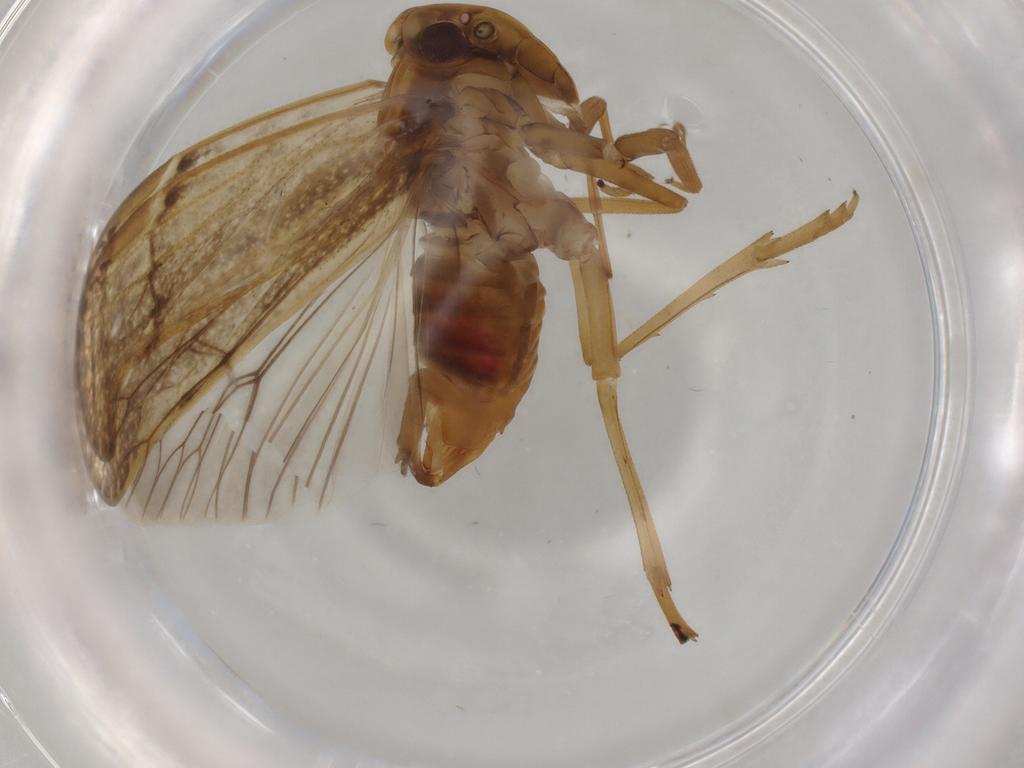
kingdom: Animalia
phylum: Arthropoda
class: Insecta
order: Hemiptera
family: Cixiidae
